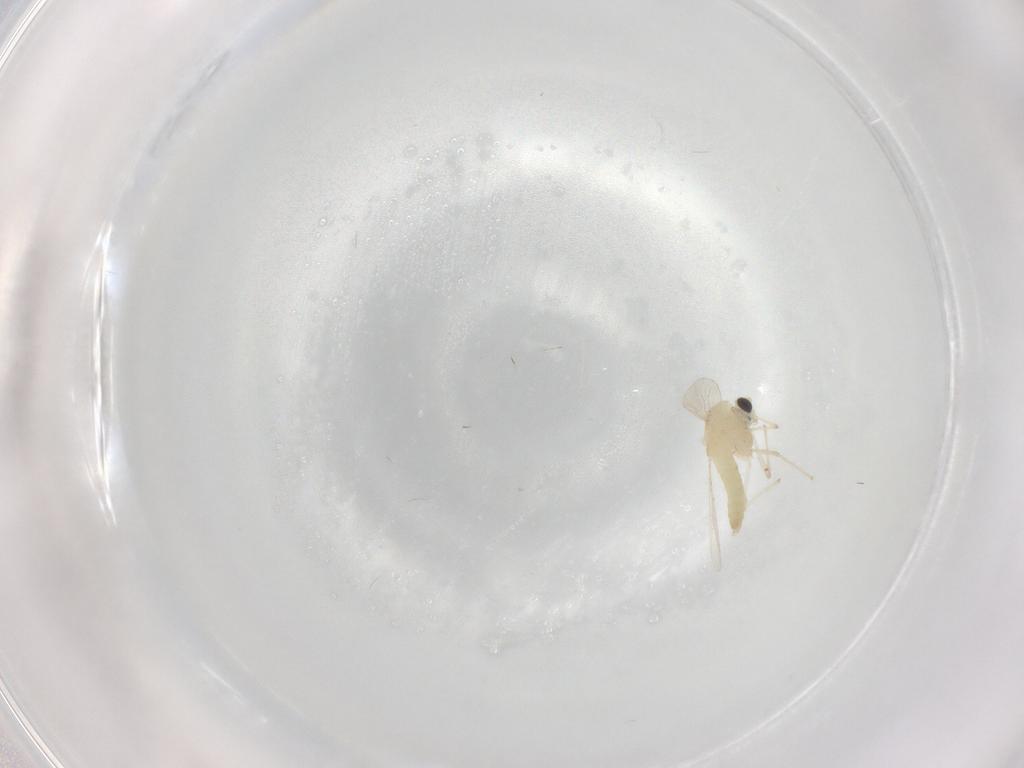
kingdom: Animalia
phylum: Arthropoda
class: Insecta
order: Diptera
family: Chironomidae
